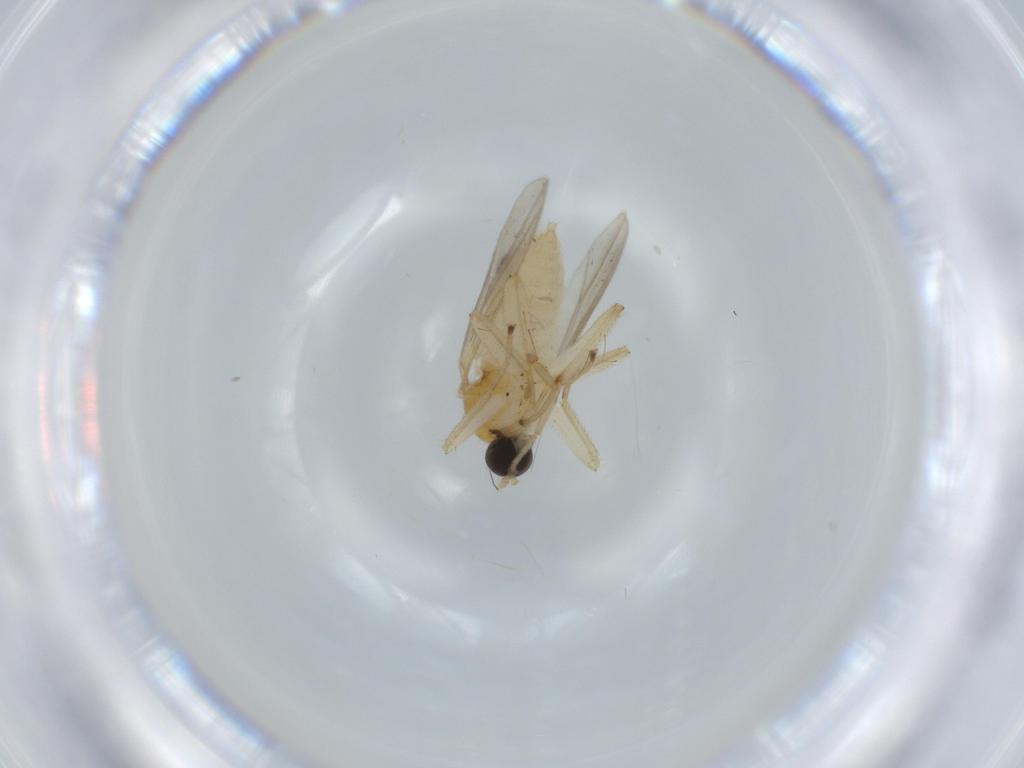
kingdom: Animalia
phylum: Arthropoda
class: Insecta
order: Diptera
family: Hybotidae
